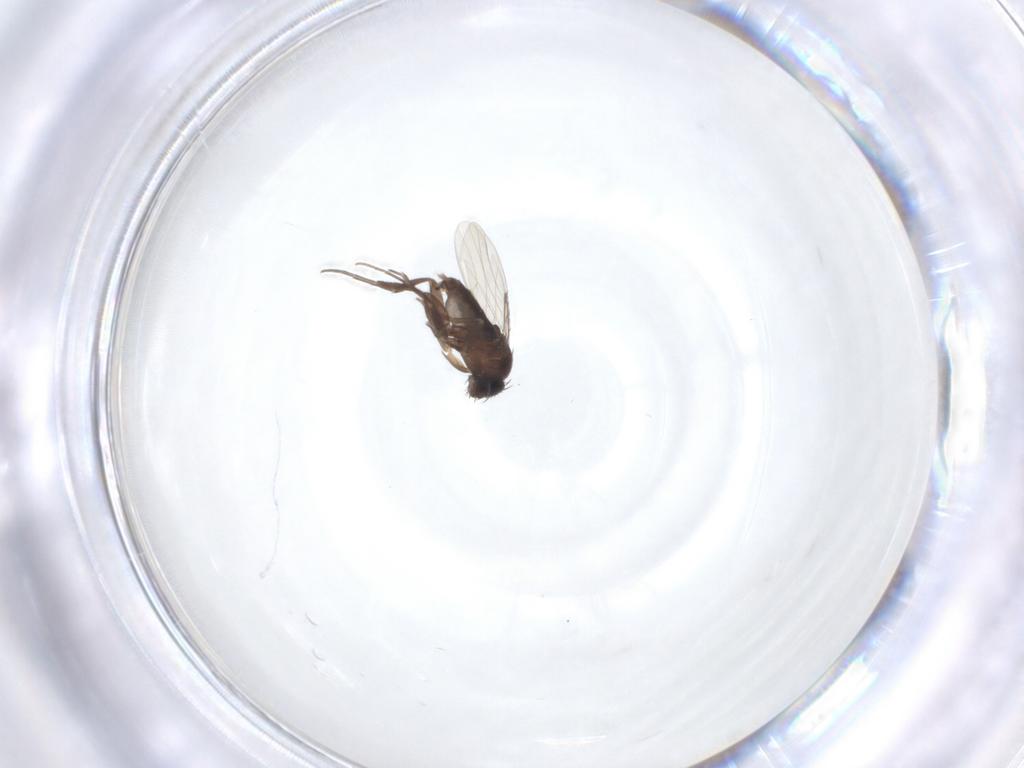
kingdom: Animalia
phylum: Arthropoda
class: Insecta
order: Diptera
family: Phoridae
